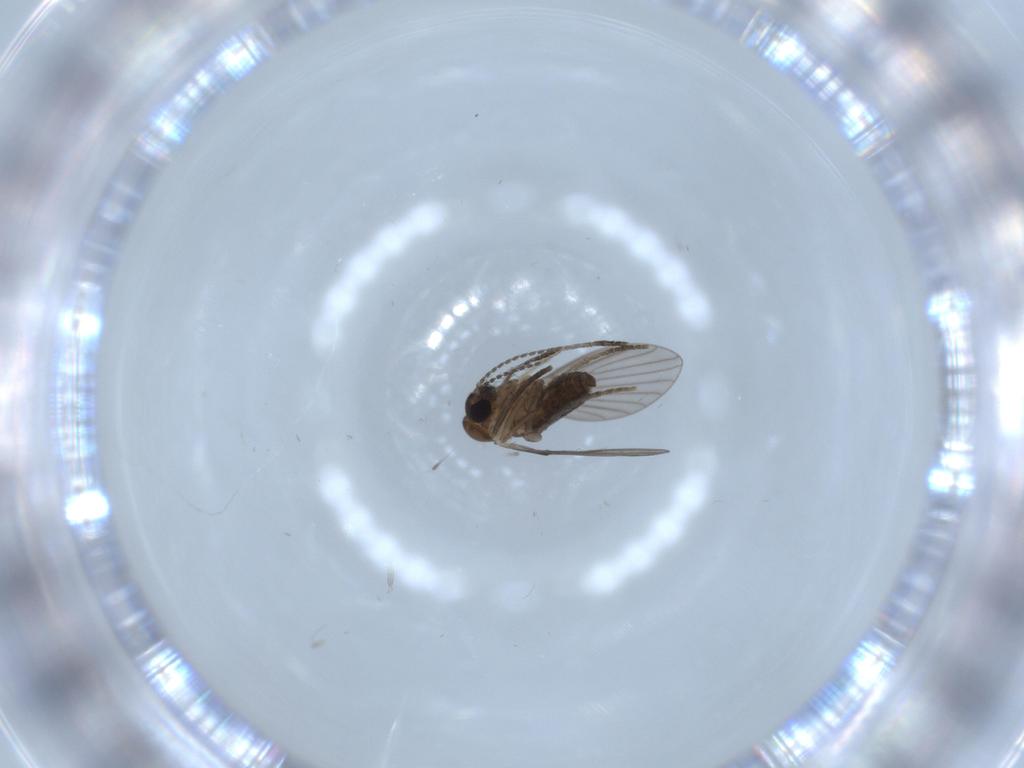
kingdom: Animalia
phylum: Arthropoda
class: Insecta
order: Diptera
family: Psychodidae
